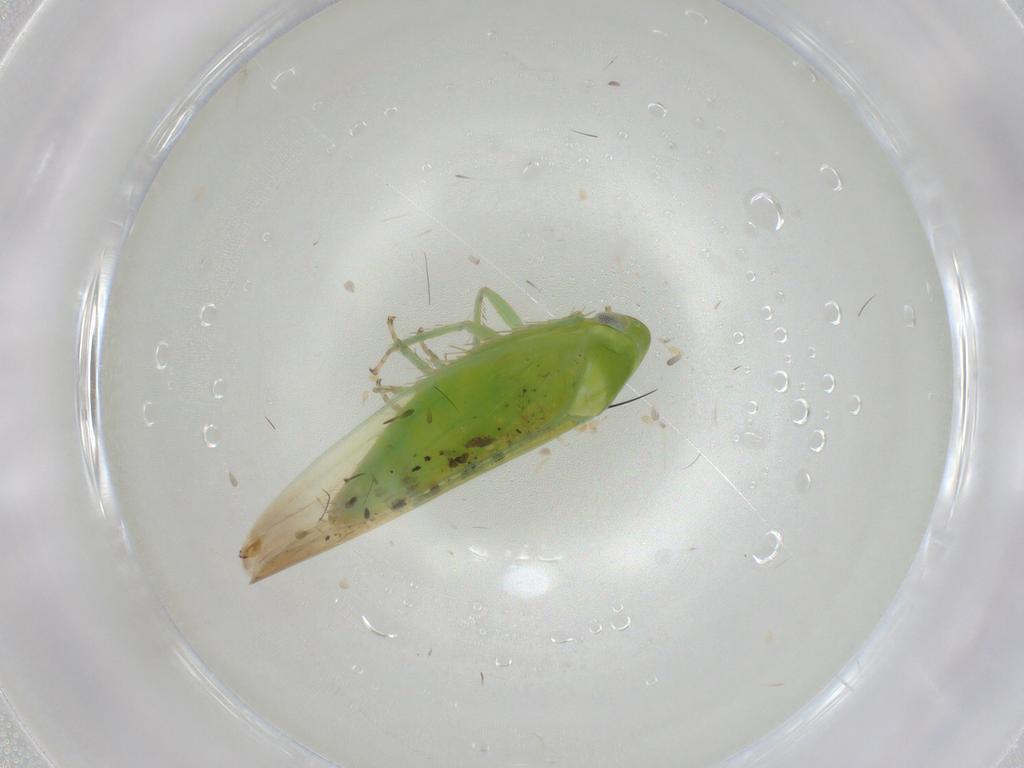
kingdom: Animalia
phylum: Arthropoda
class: Insecta
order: Hemiptera
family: Cicadellidae
